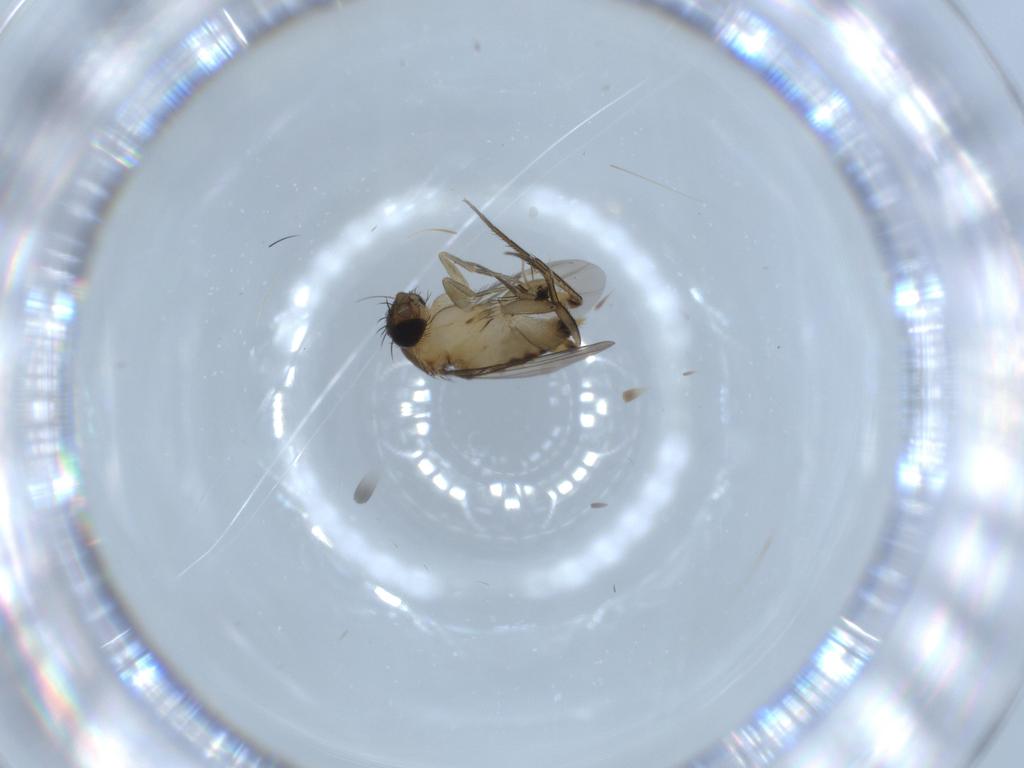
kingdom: Animalia
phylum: Arthropoda
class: Insecta
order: Diptera
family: Phoridae
